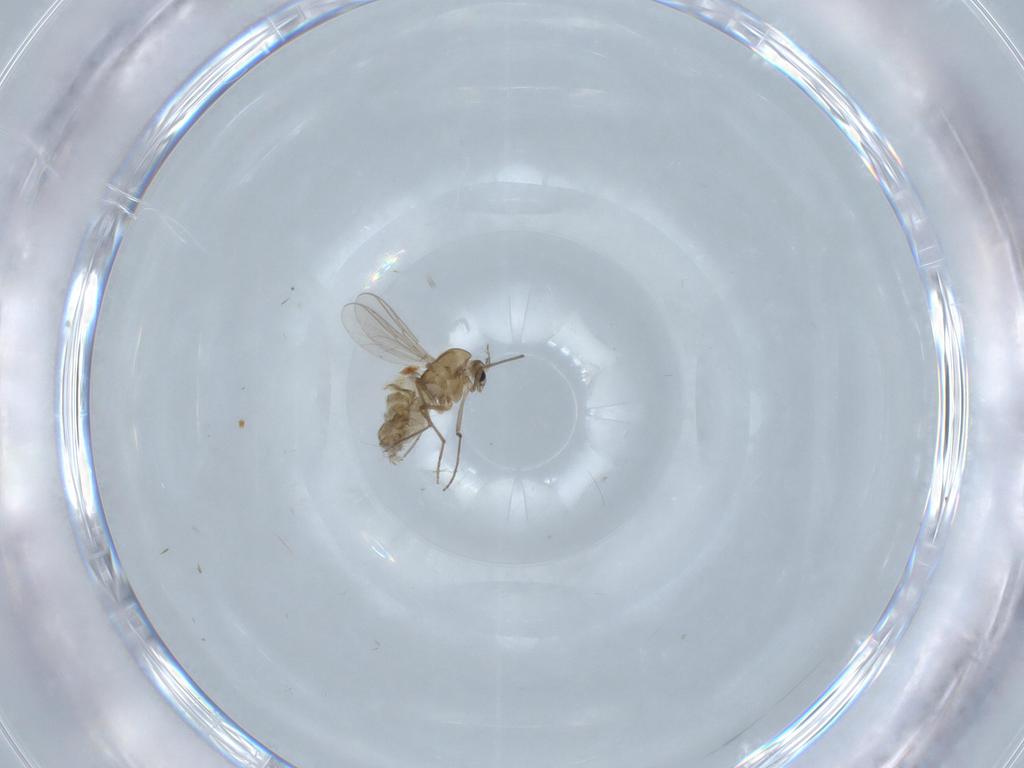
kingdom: Animalia
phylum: Arthropoda
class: Insecta
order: Diptera
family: Chironomidae
